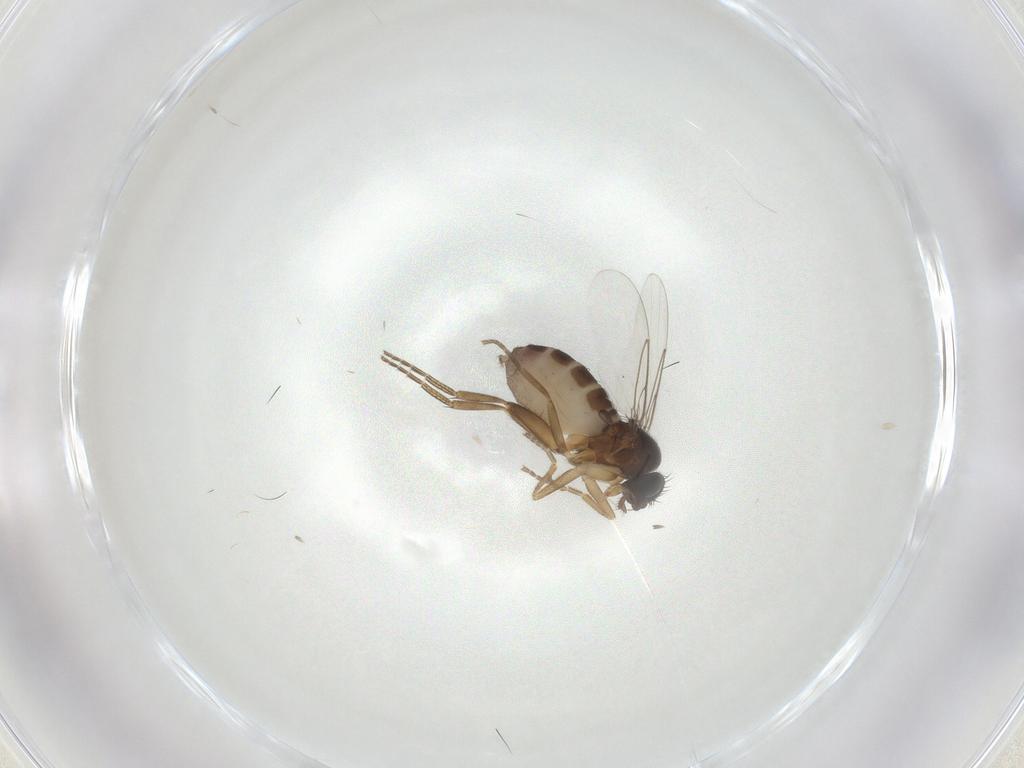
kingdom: Animalia
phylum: Arthropoda
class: Insecta
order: Diptera
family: Phoridae
